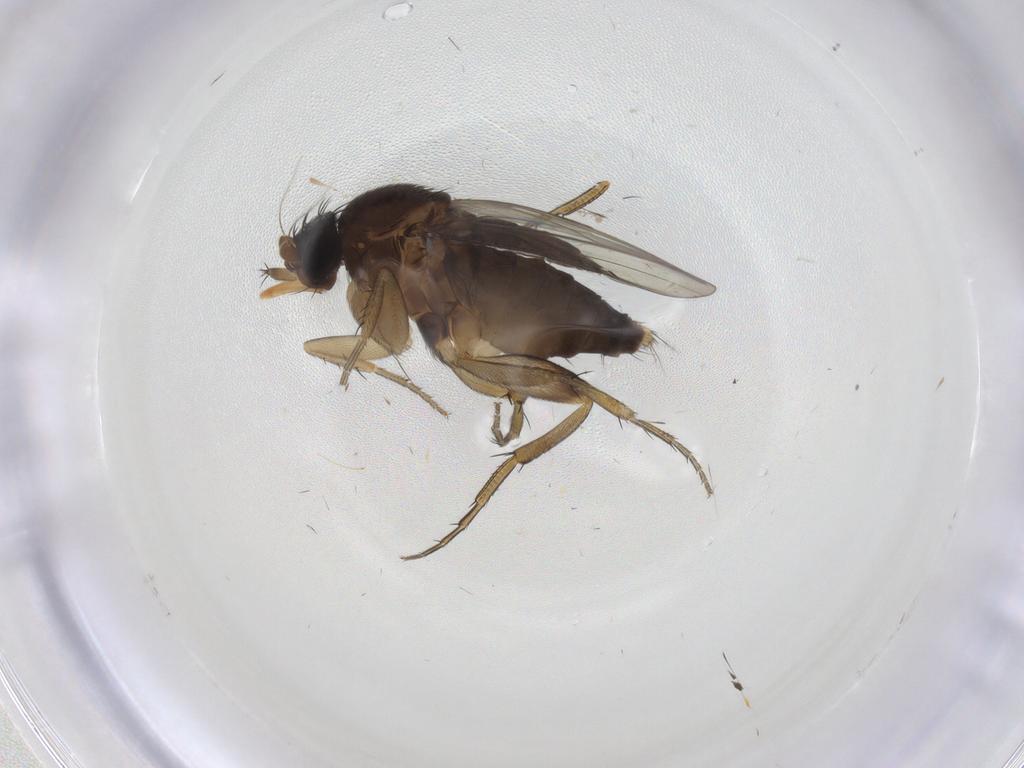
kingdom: Animalia
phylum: Arthropoda
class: Insecta
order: Diptera
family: Phoridae
